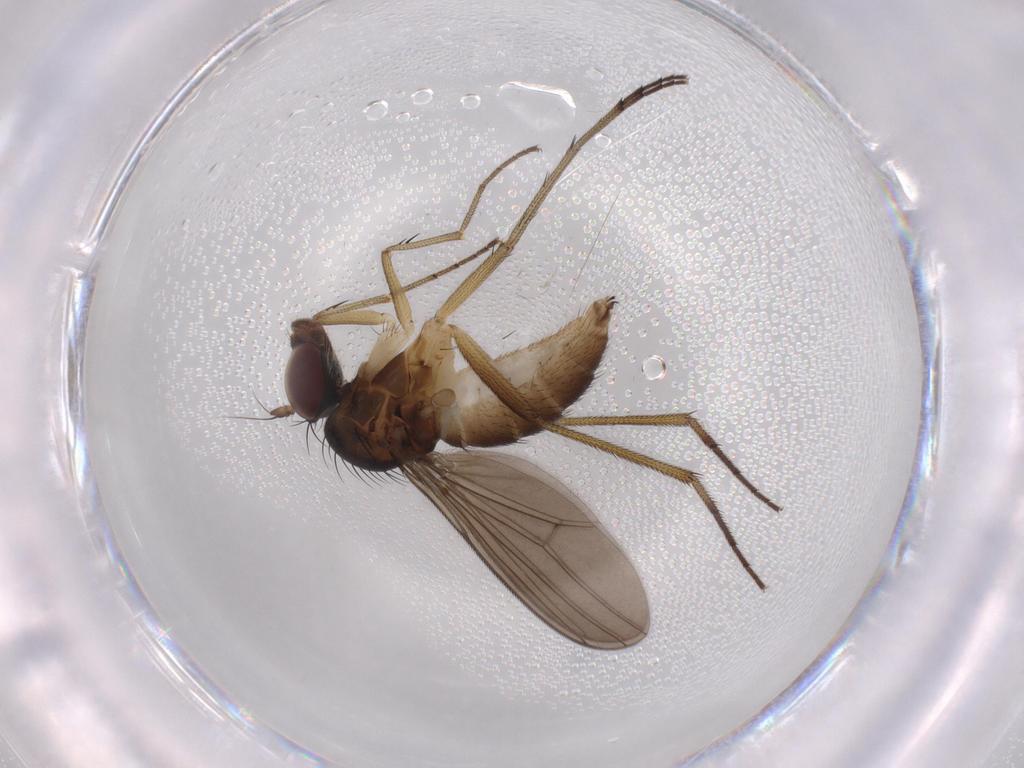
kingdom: Animalia
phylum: Arthropoda
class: Insecta
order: Diptera
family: Dolichopodidae
